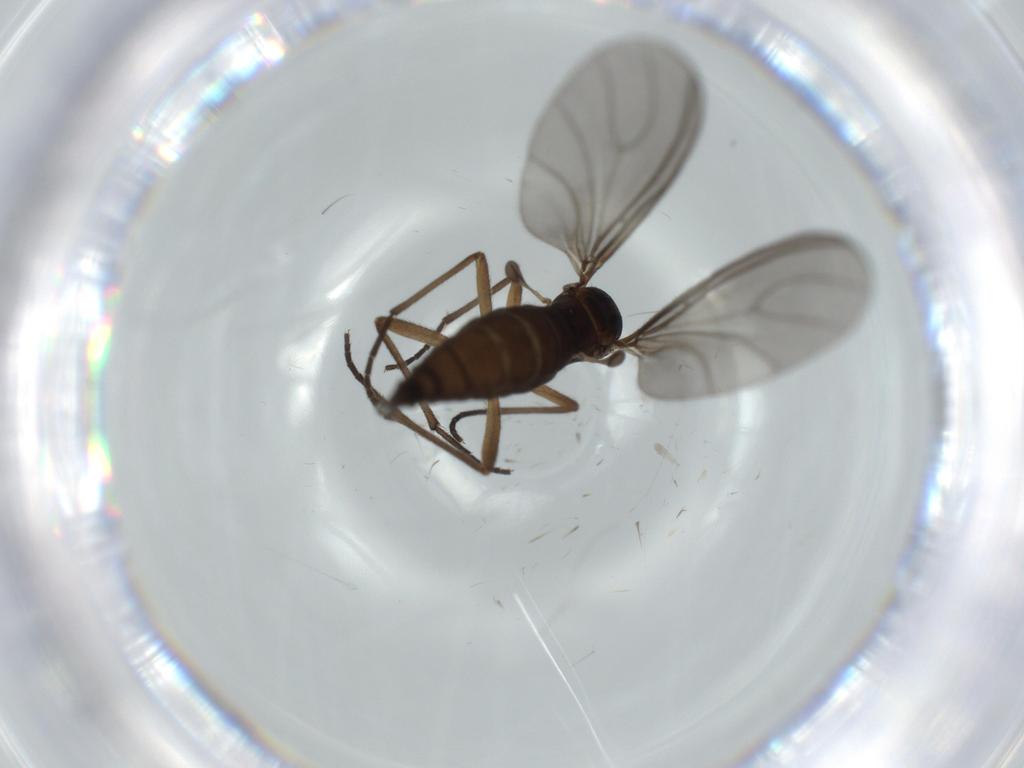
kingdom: Animalia
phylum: Arthropoda
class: Insecta
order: Diptera
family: Sciaridae
